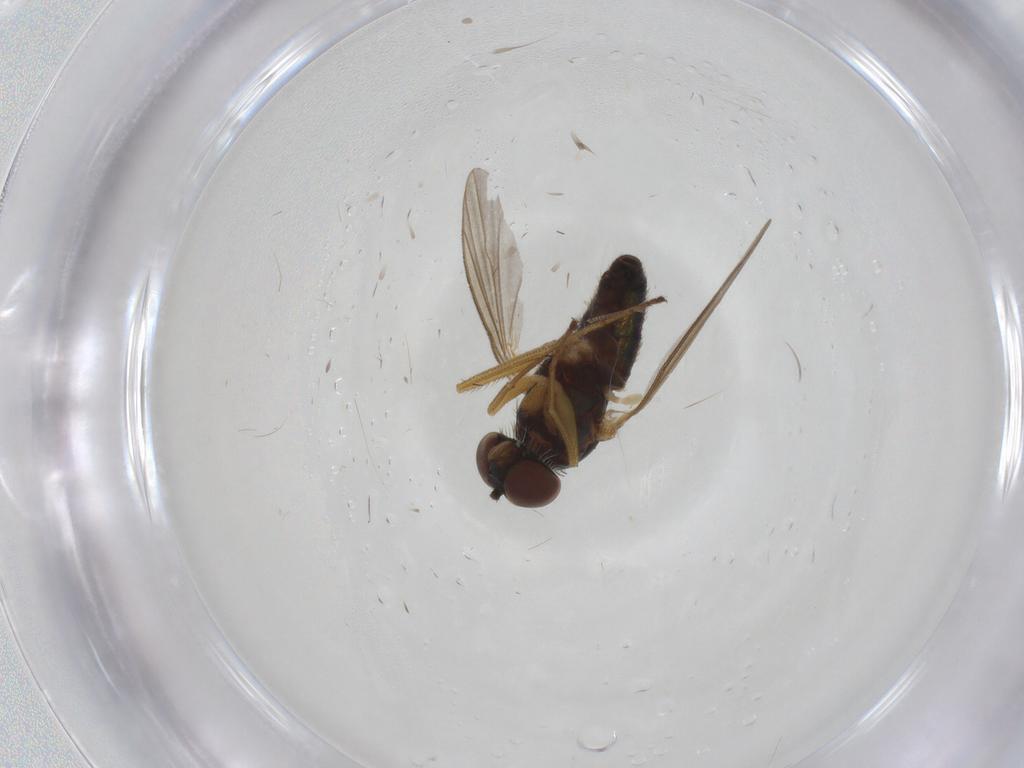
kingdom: Animalia
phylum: Arthropoda
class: Insecta
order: Diptera
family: Dolichopodidae
